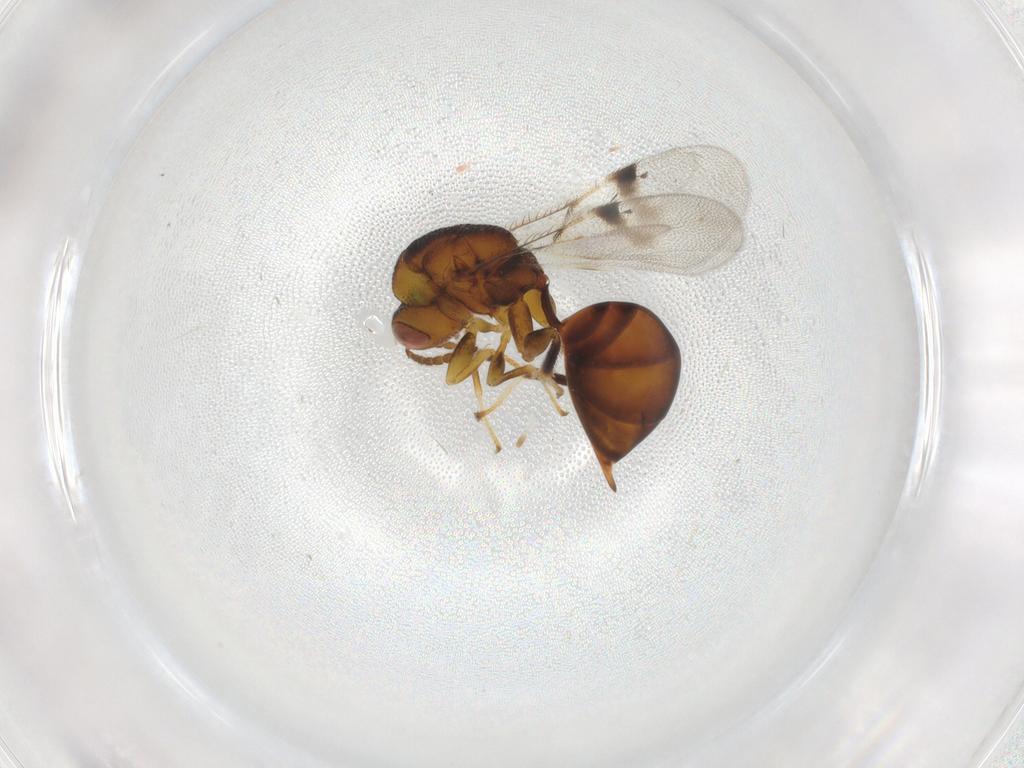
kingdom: Animalia
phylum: Arthropoda
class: Insecta
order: Hymenoptera
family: Eurytomidae
